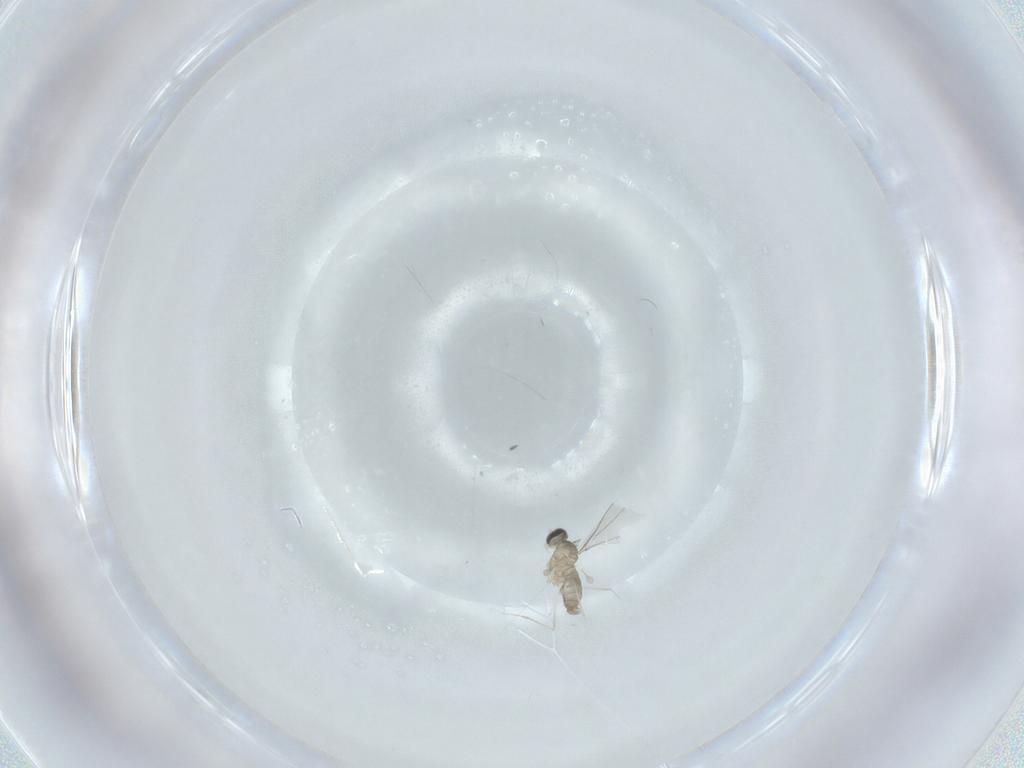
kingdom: Animalia
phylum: Arthropoda
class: Insecta
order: Diptera
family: Cecidomyiidae
